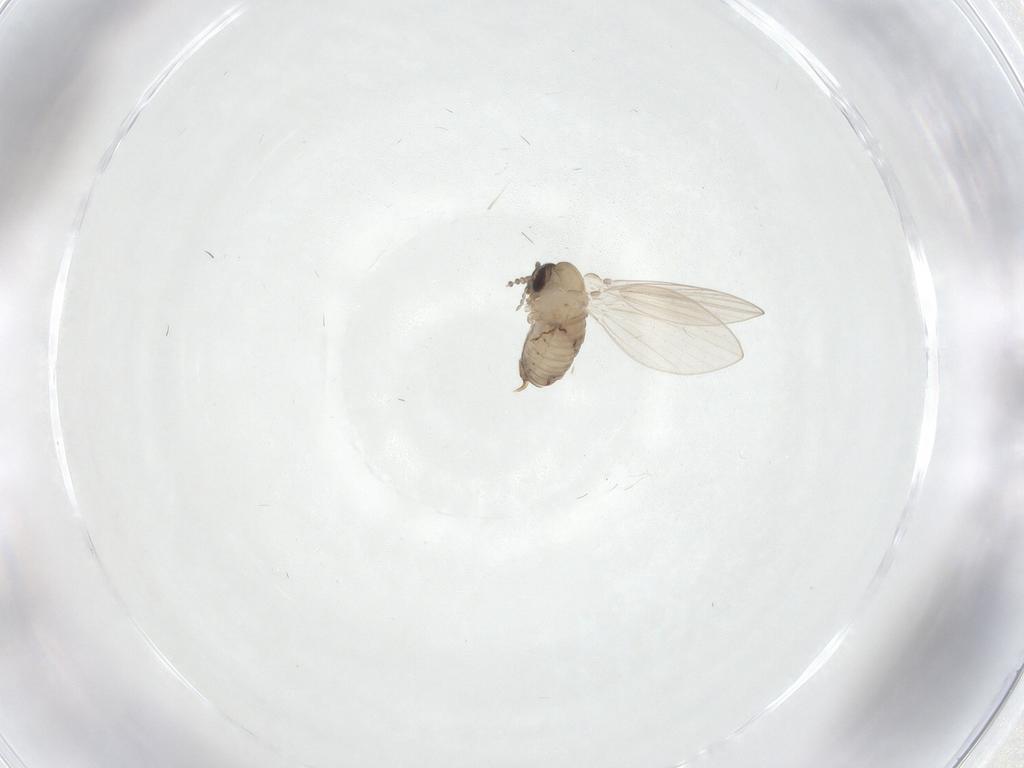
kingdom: Animalia
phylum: Arthropoda
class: Insecta
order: Diptera
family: Psychodidae
